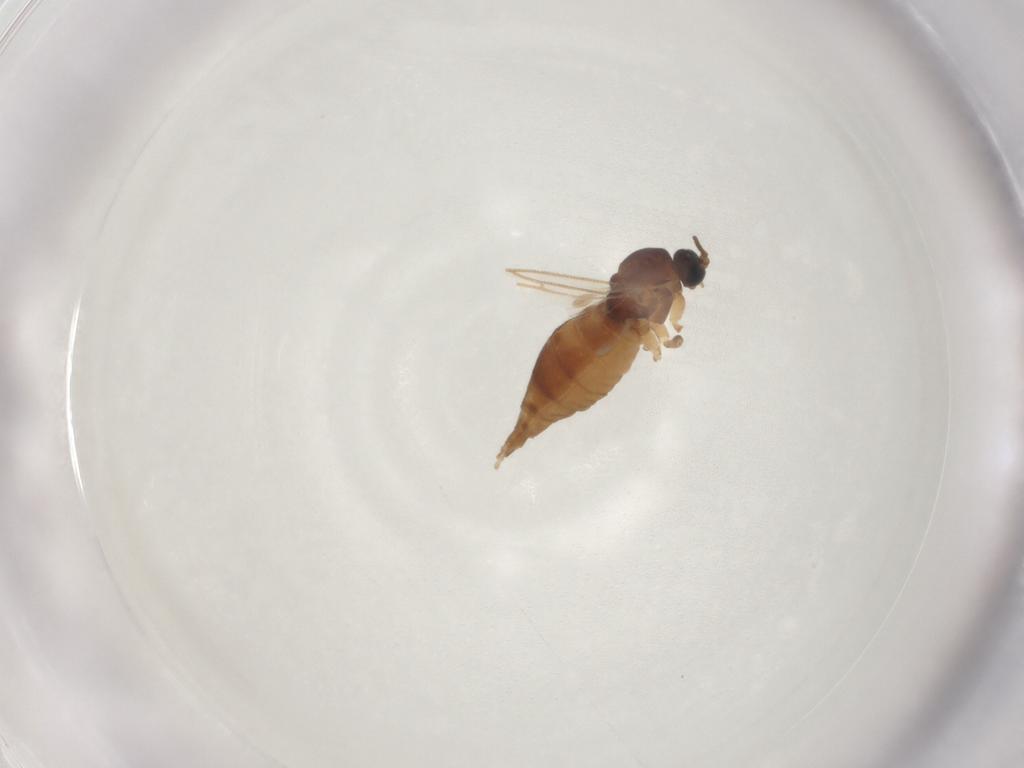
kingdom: Animalia
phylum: Arthropoda
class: Insecta
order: Diptera
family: Sciaridae
